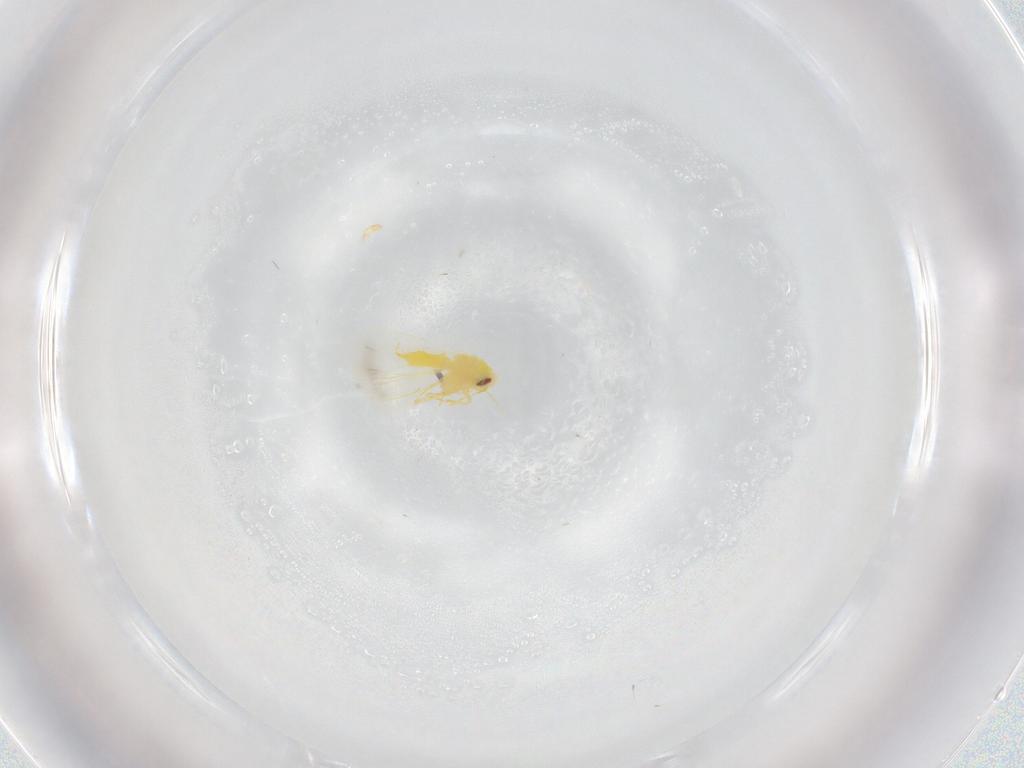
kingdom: Animalia
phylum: Arthropoda
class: Insecta
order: Hemiptera
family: Aleyrodidae
